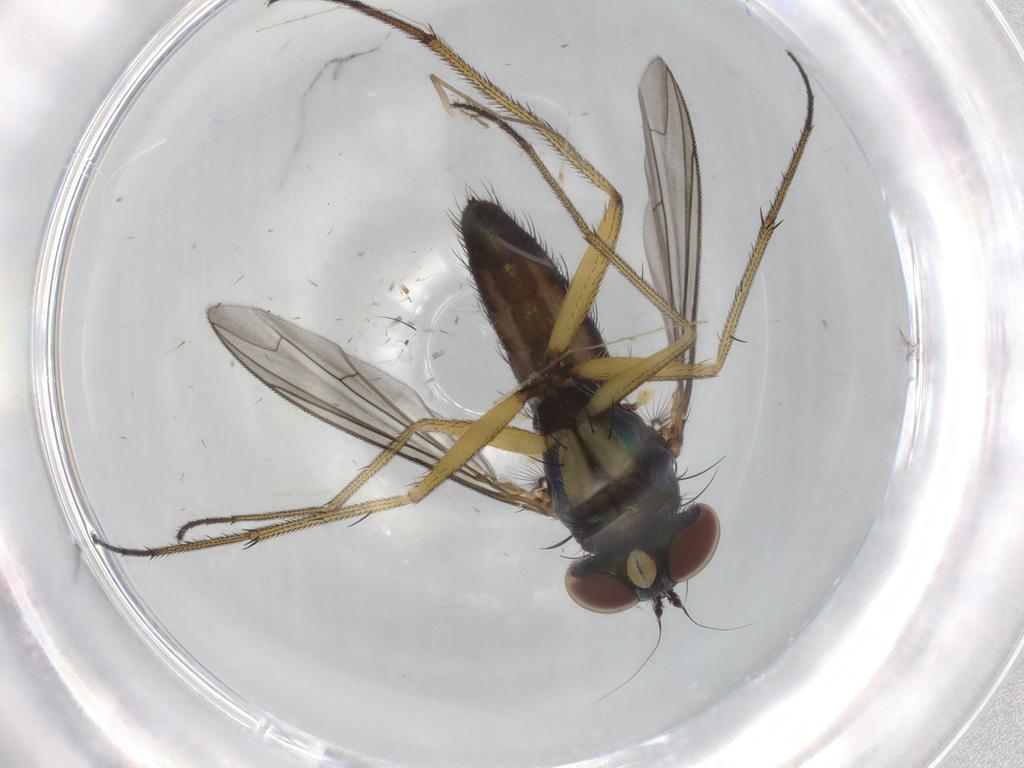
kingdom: Animalia
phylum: Arthropoda
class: Insecta
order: Diptera
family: Dolichopodidae
